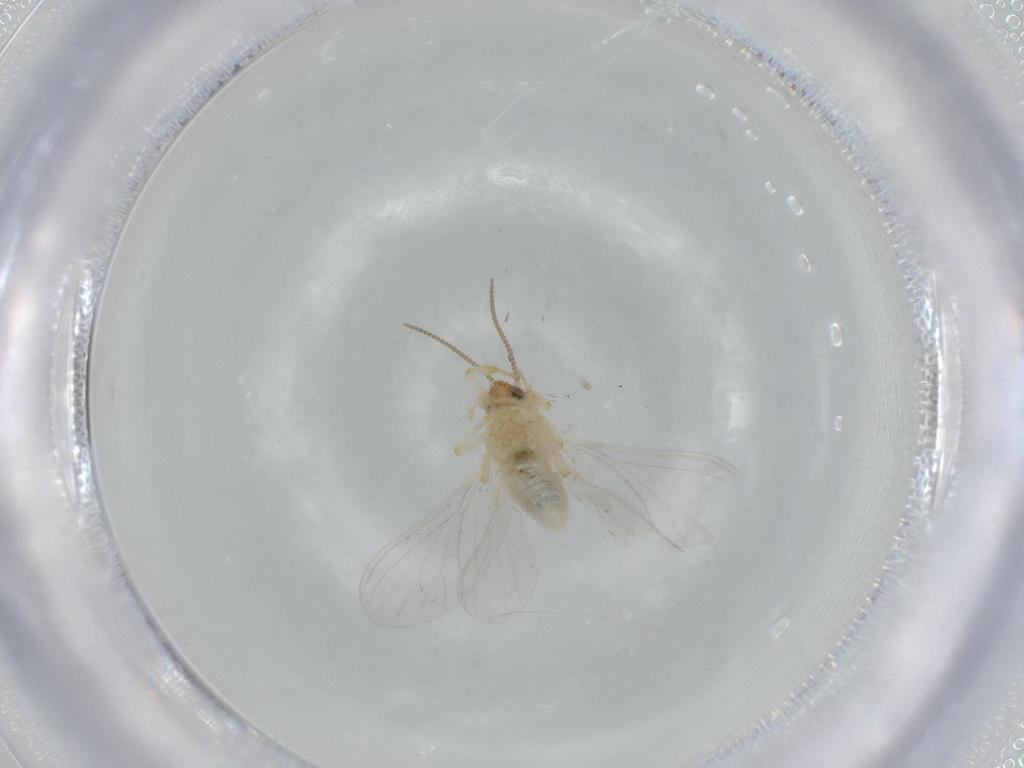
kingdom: Animalia
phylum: Arthropoda
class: Insecta
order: Neuroptera
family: Coniopterygidae
